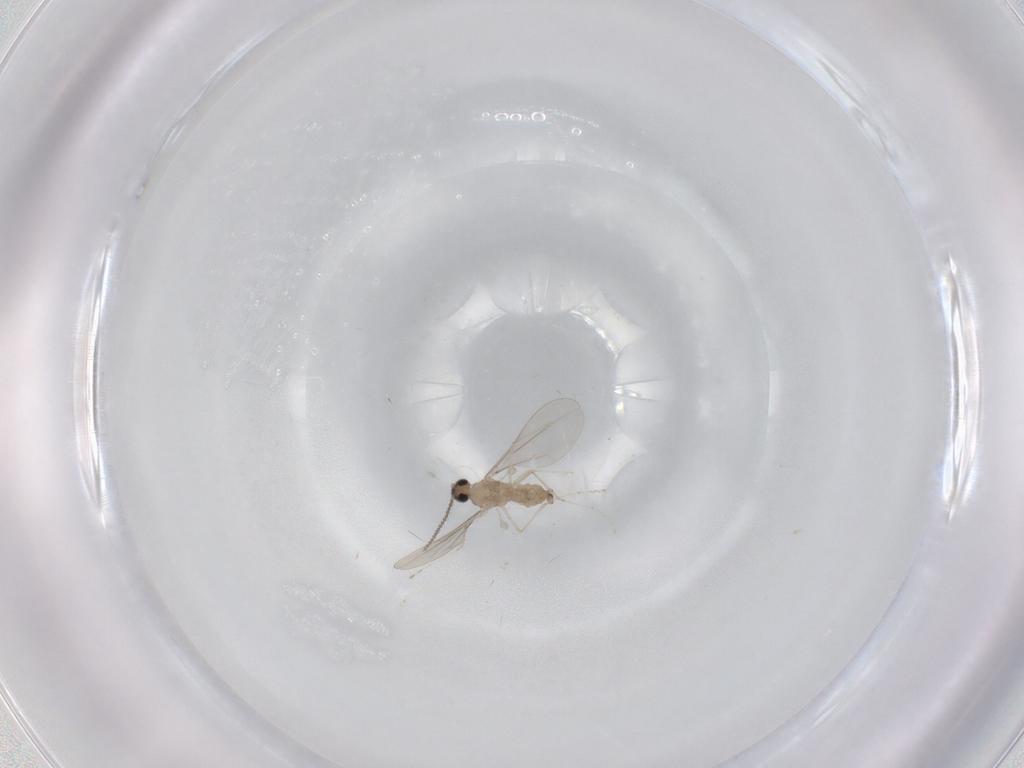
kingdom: Animalia
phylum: Arthropoda
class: Insecta
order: Diptera
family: Cecidomyiidae
